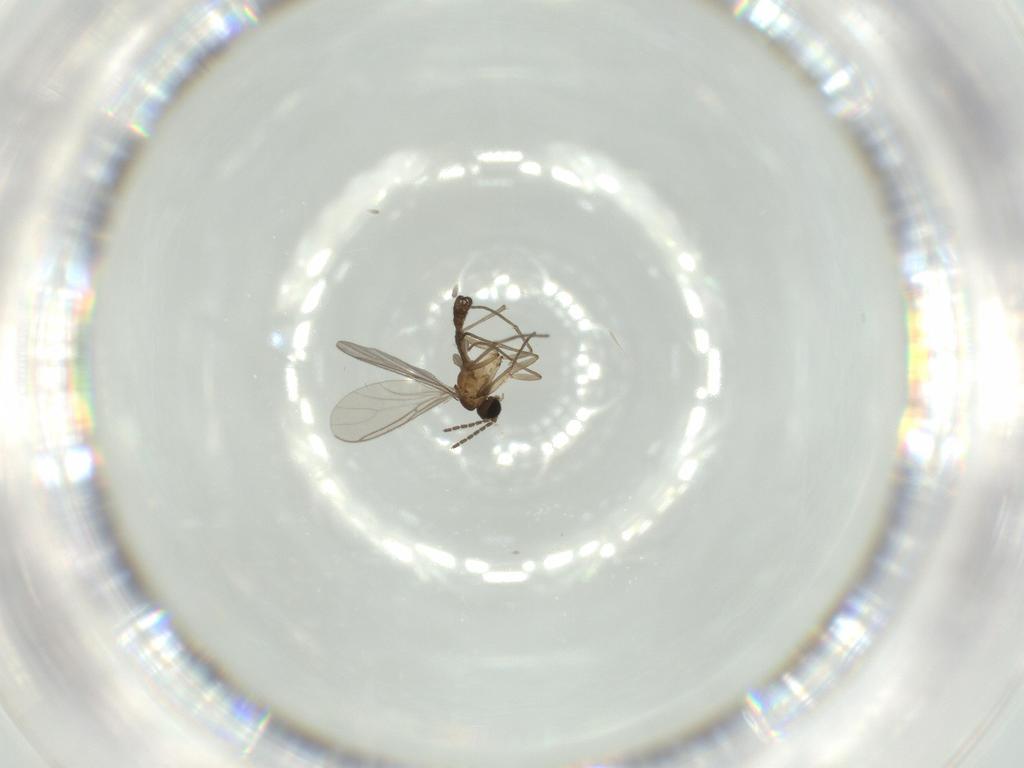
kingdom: Animalia
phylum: Arthropoda
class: Insecta
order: Diptera
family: Sciaridae
